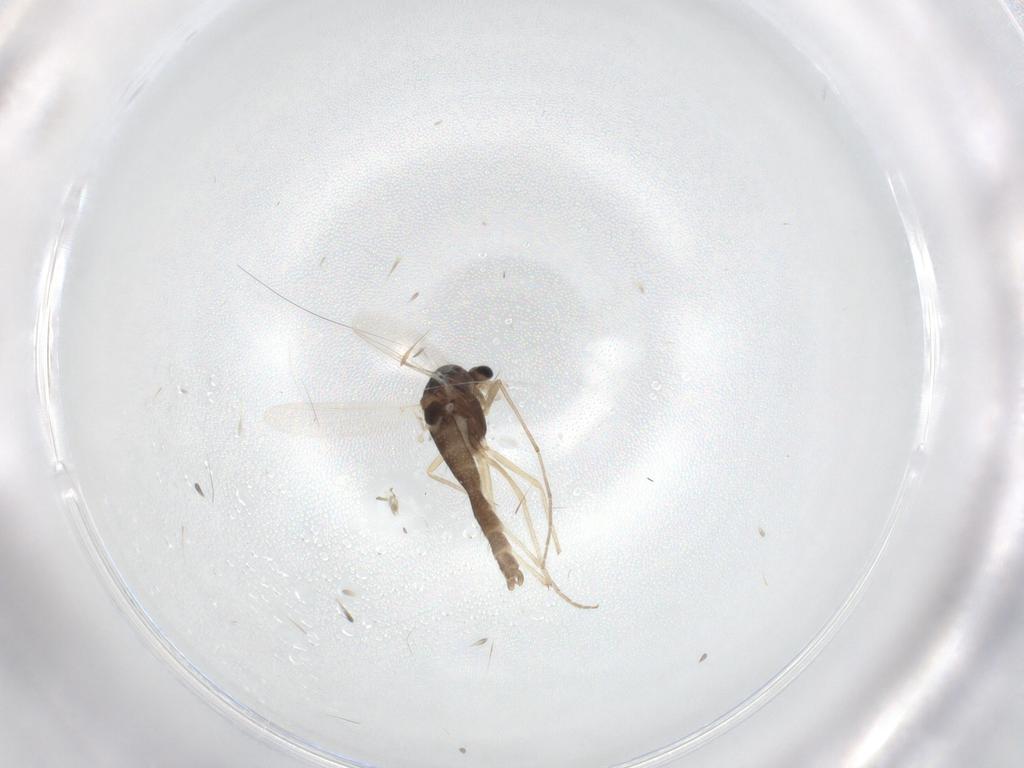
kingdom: Animalia
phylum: Arthropoda
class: Insecta
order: Diptera
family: Chironomidae
